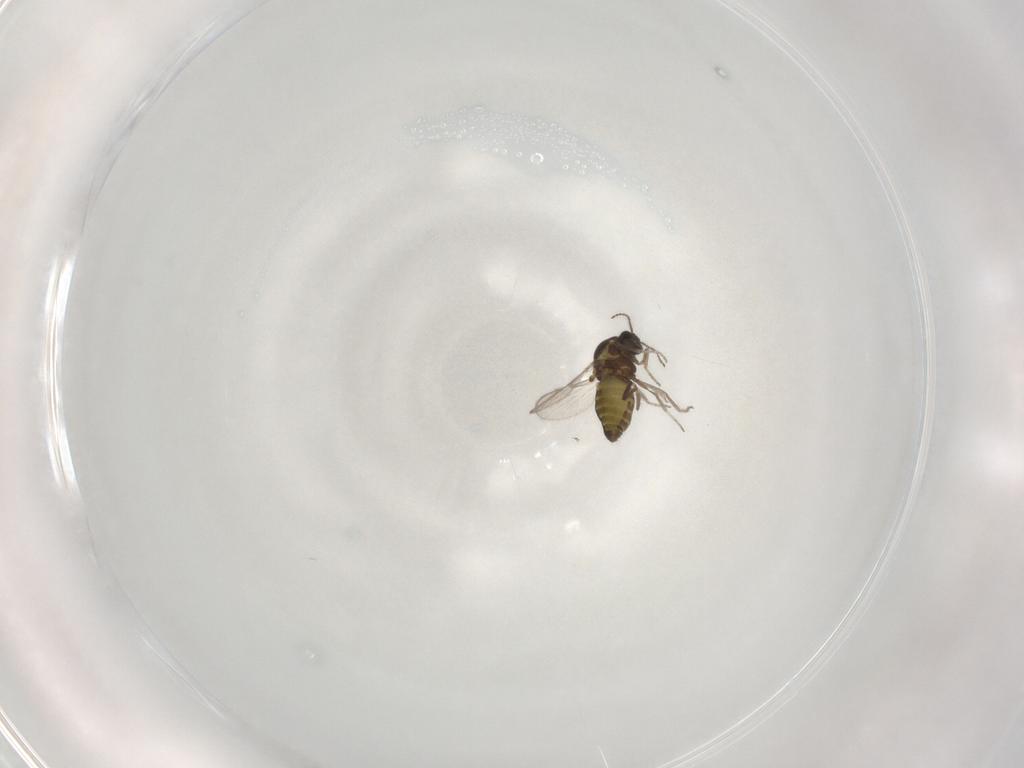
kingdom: Animalia
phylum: Arthropoda
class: Insecta
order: Diptera
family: Ceratopogonidae
